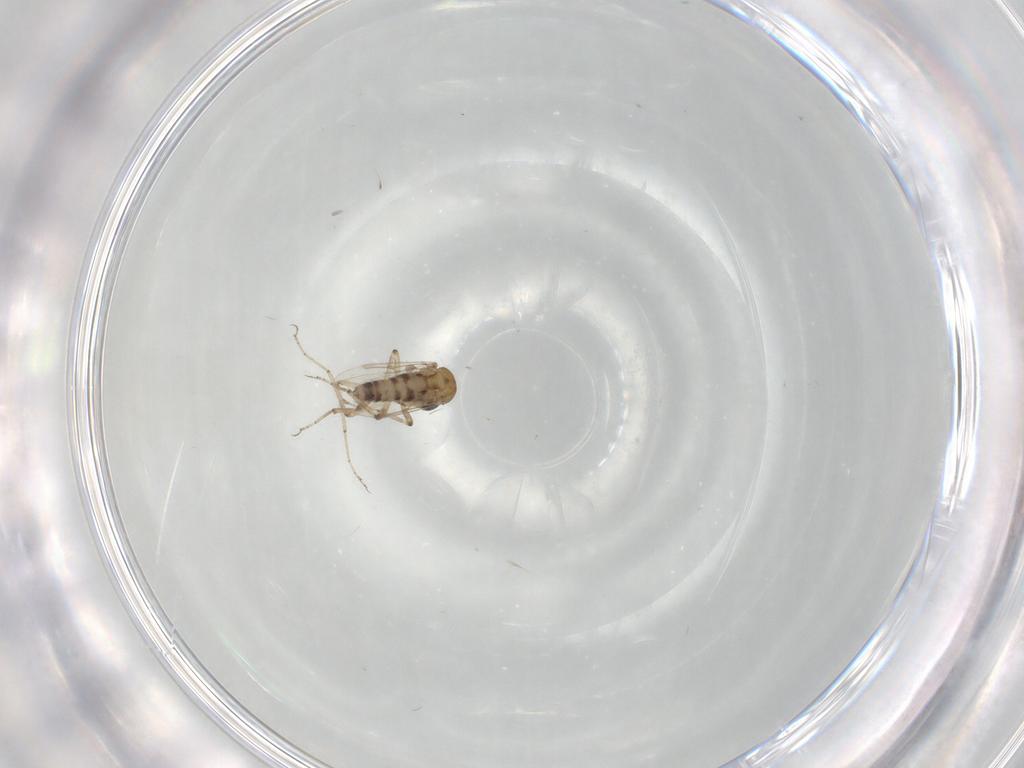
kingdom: Animalia
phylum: Arthropoda
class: Insecta
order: Diptera
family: Ceratopogonidae
